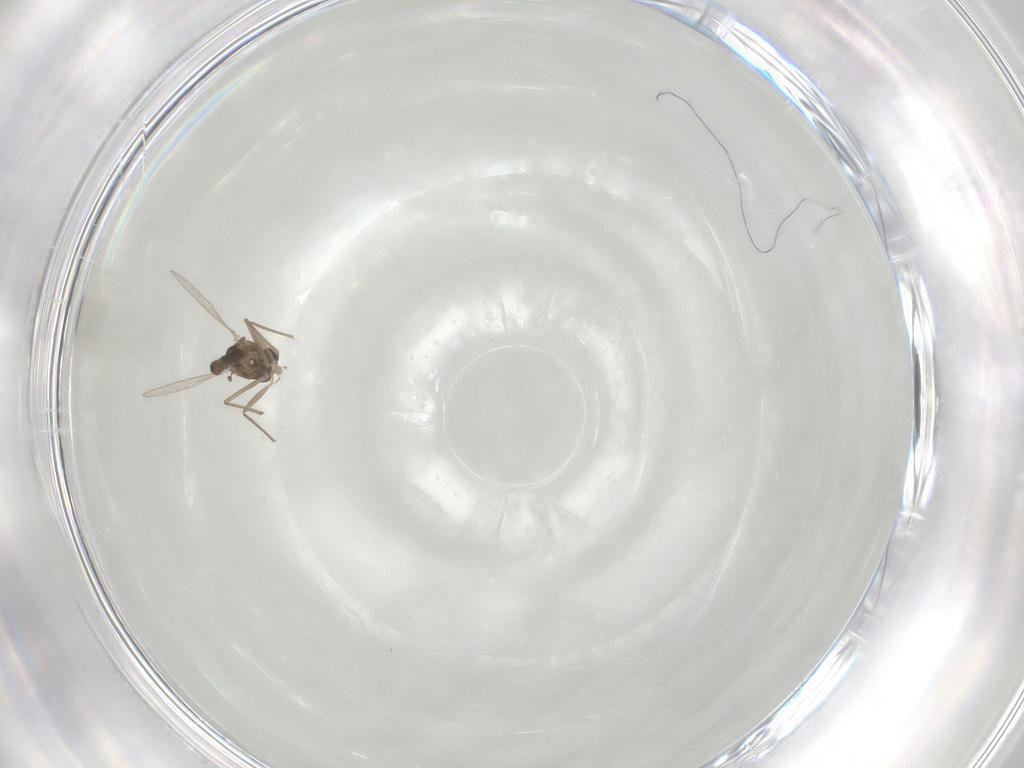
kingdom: Animalia
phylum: Arthropoda
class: Insecta
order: Diptera
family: Chironomidae
